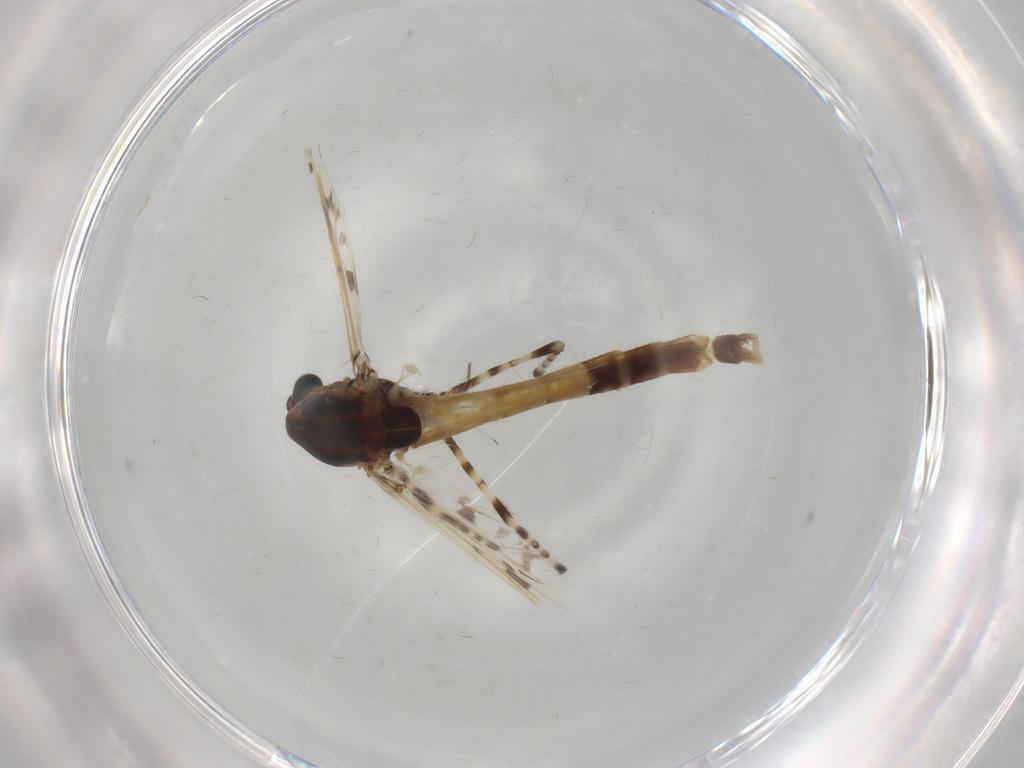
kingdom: Animalia
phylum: Arthropoda
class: Insecta
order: Diptera
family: Chironomidae
